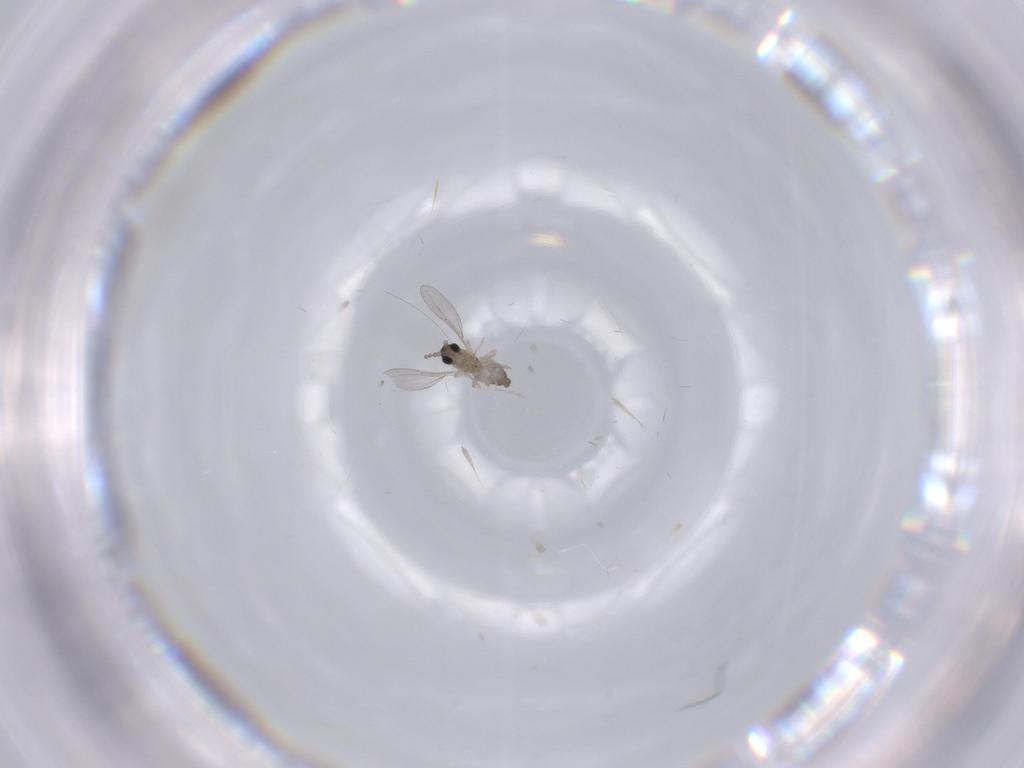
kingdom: Animalia
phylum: Arthropoda
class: Insecta
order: Diptera
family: Cecidomyiidae
